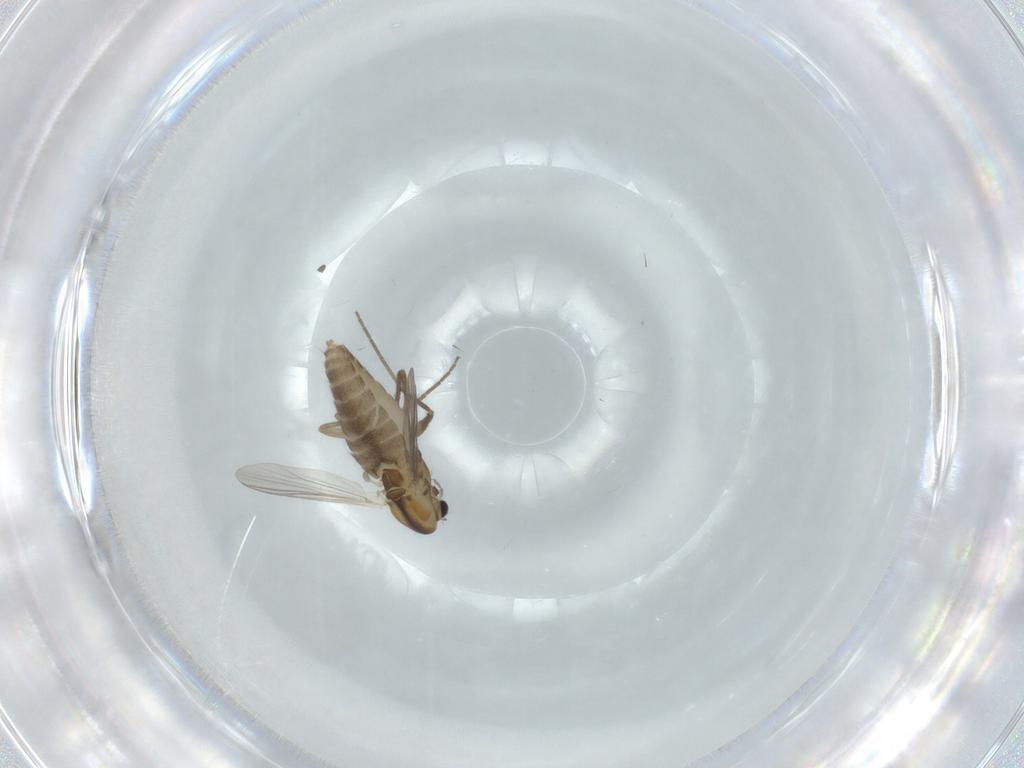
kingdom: Animalia
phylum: Arthropoda
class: Insecta
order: Diptera
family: Chironomidae
